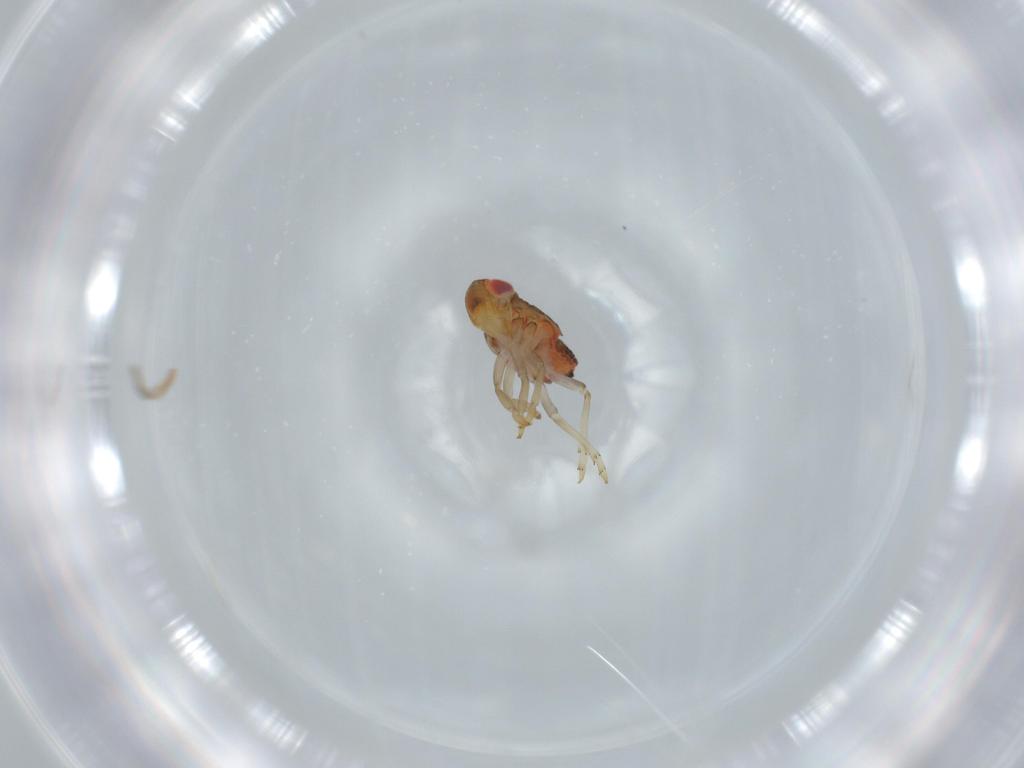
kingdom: Animalia
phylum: Arthropoda
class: Insecta
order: Hemiptera
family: Issidae
